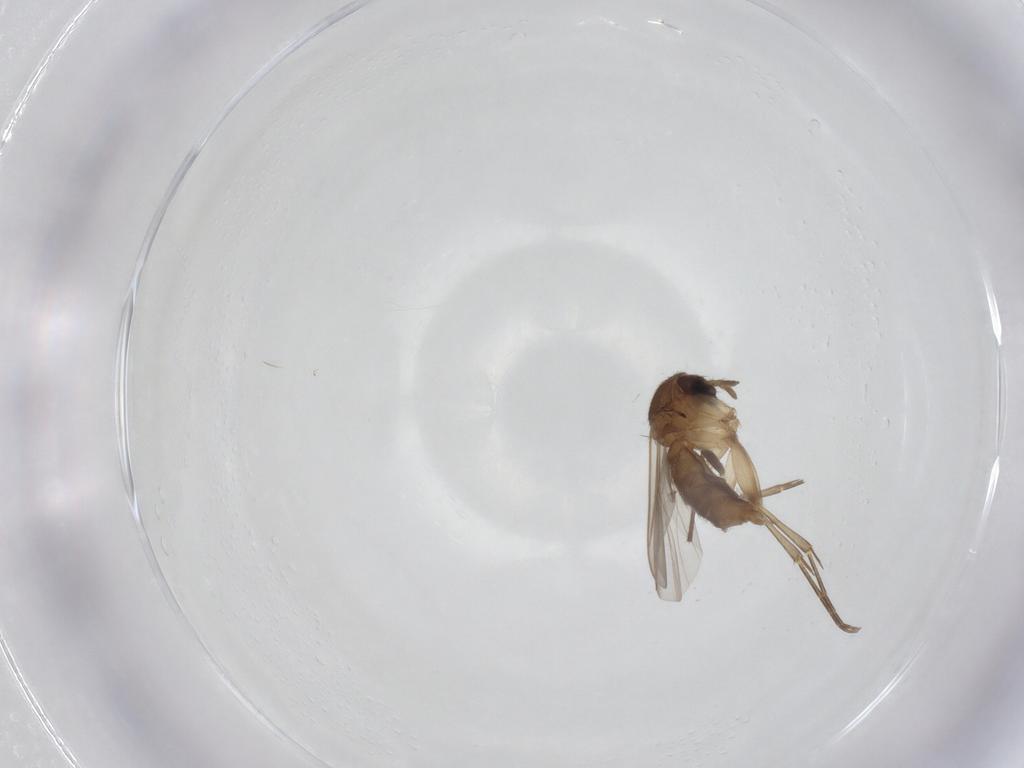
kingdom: Animalia
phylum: Arthropoda
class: Insecta
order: Diptera
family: Mycetophilidae
